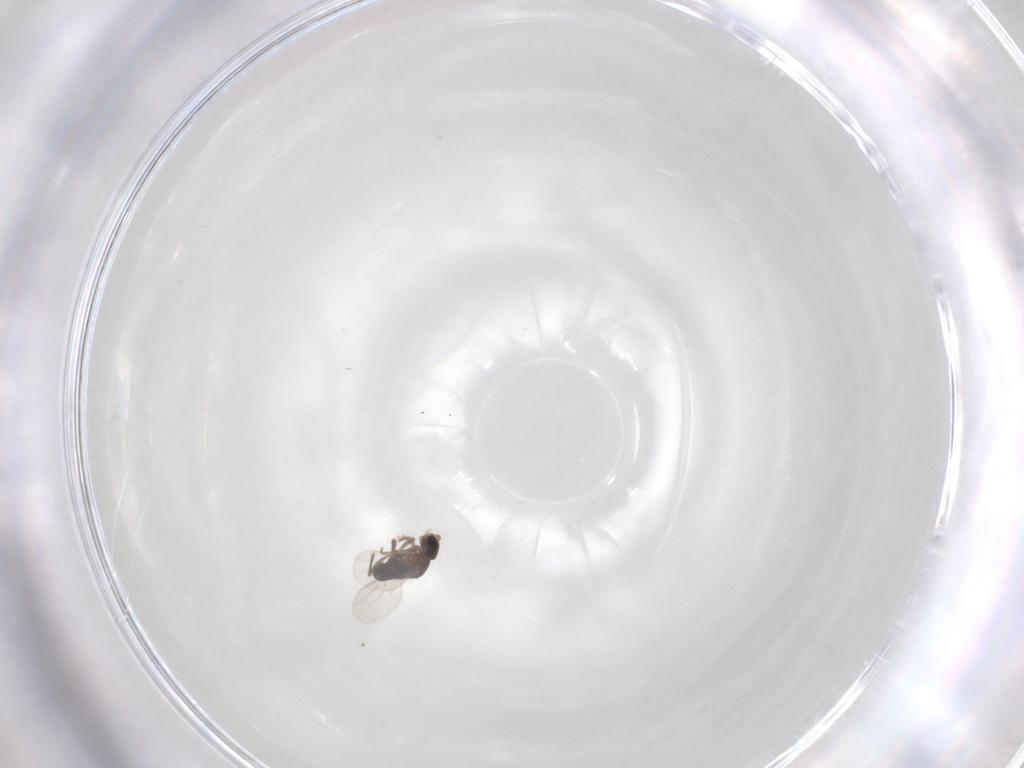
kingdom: Animalia
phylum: Arthropoda
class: Insecta
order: Diptera
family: Phoridae
